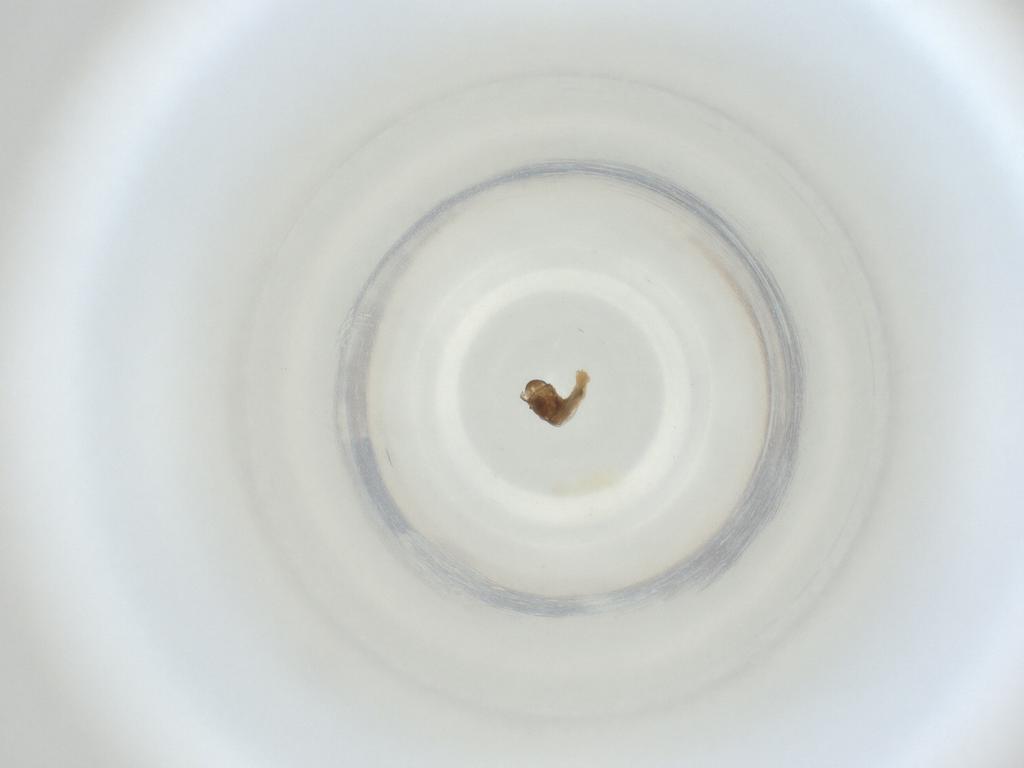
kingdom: Animalia
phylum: Arthropoda
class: Insecta
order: Diptera
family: Cecidomyiidae
